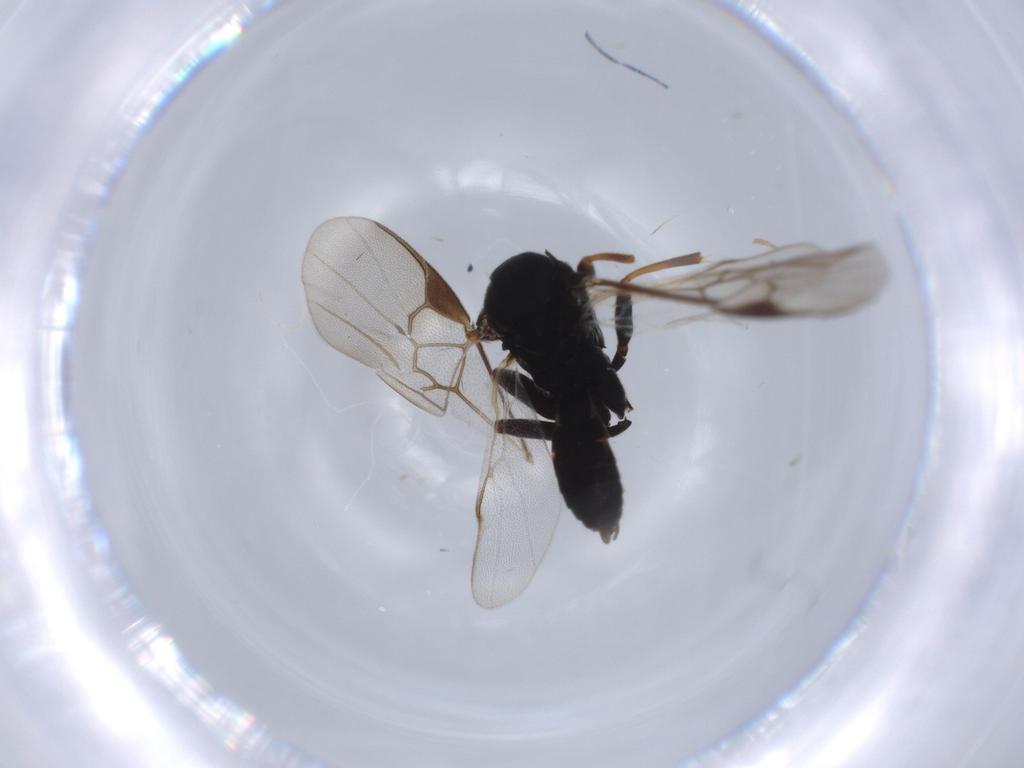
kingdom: Animalia
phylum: Arthropoda
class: Insecta
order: Hymenoptera
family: Braconidae
